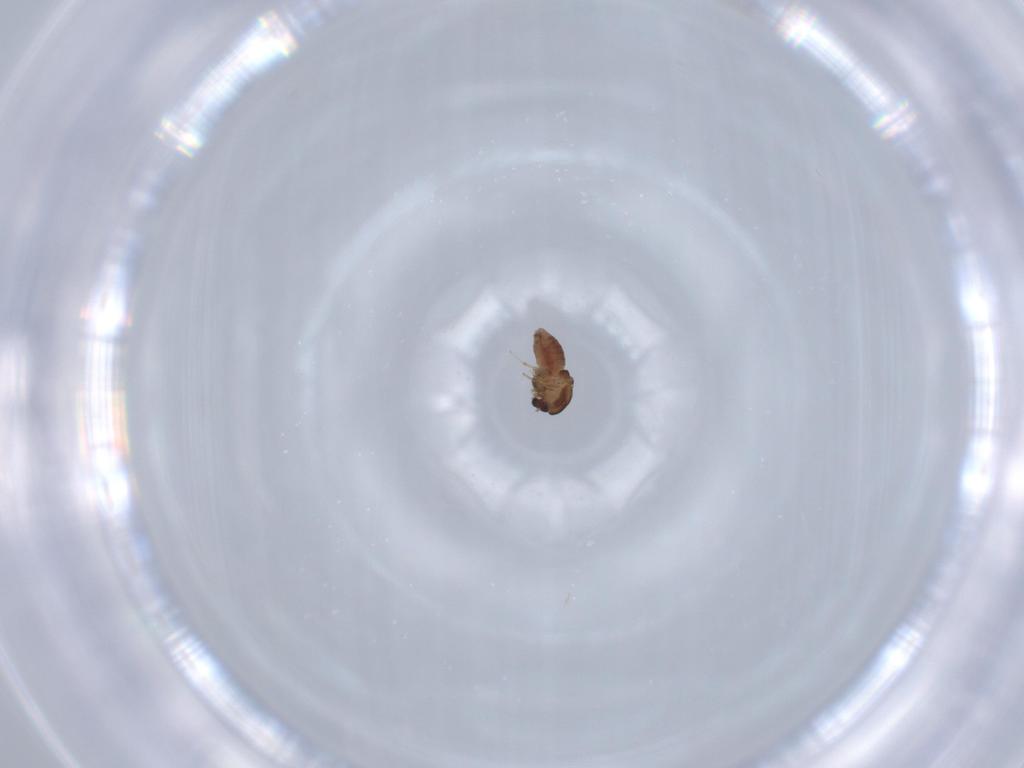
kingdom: Animalia
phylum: Arthropoda
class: Insecta
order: Diptera
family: Chironomidae
